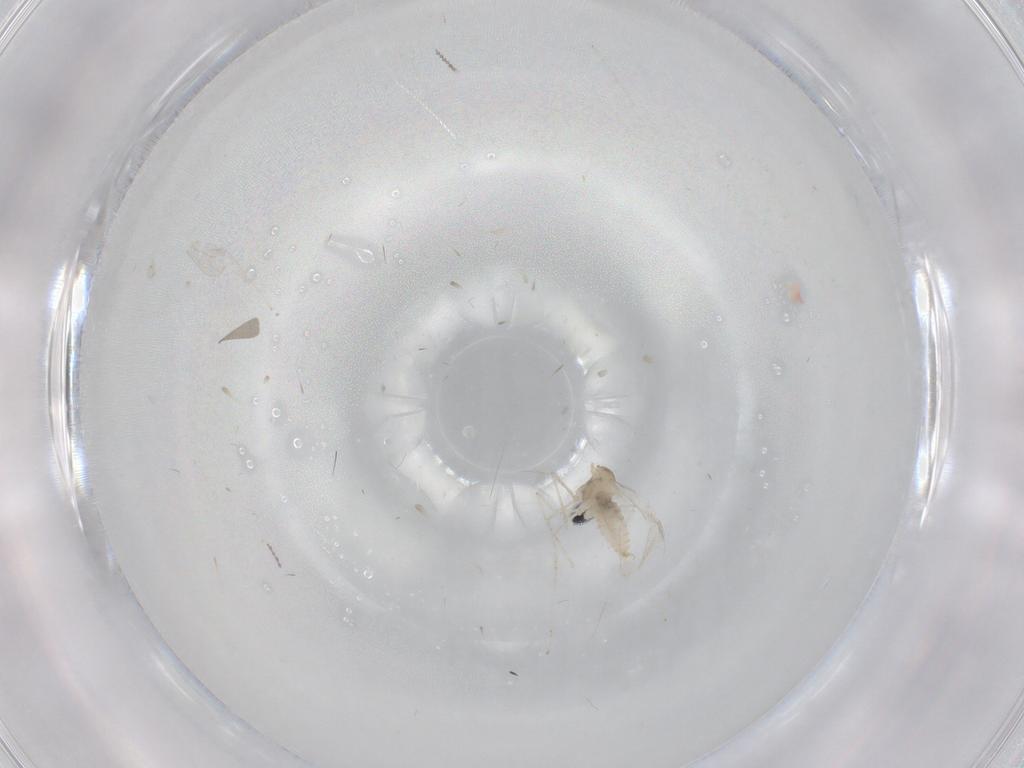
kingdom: Animalia
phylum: Arthropoda
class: Insecta
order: Diptera
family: Cecidomyiidae
